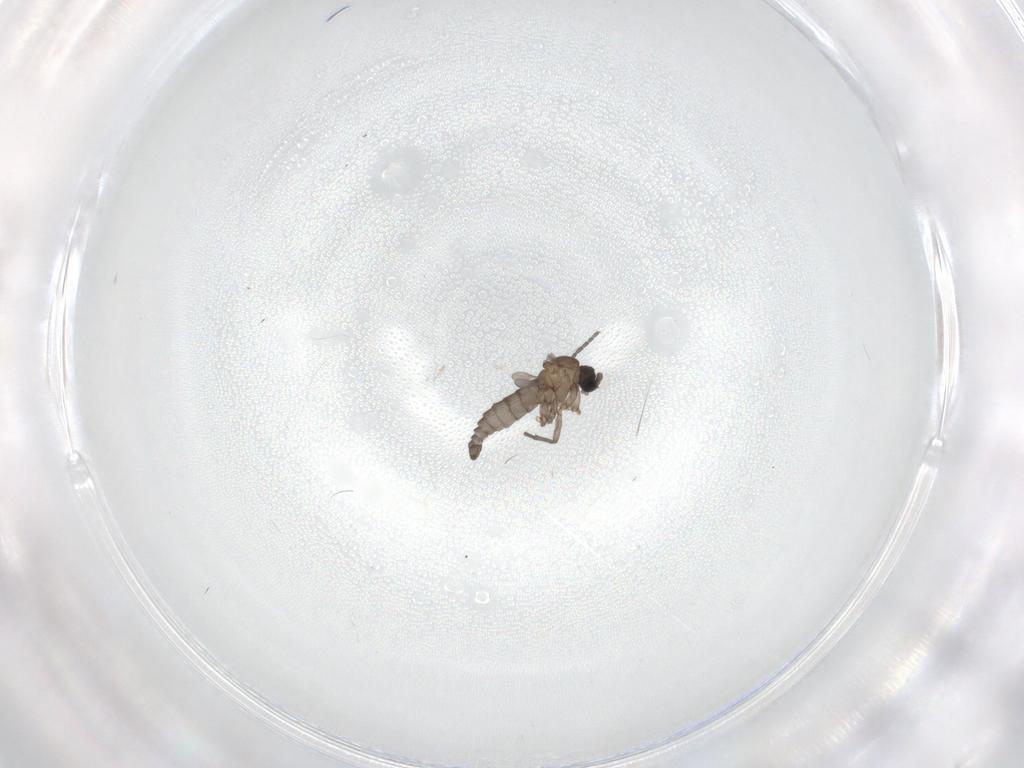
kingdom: Animalia
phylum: Arthropoda
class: Insecta
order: Diptera
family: Sciaridae
